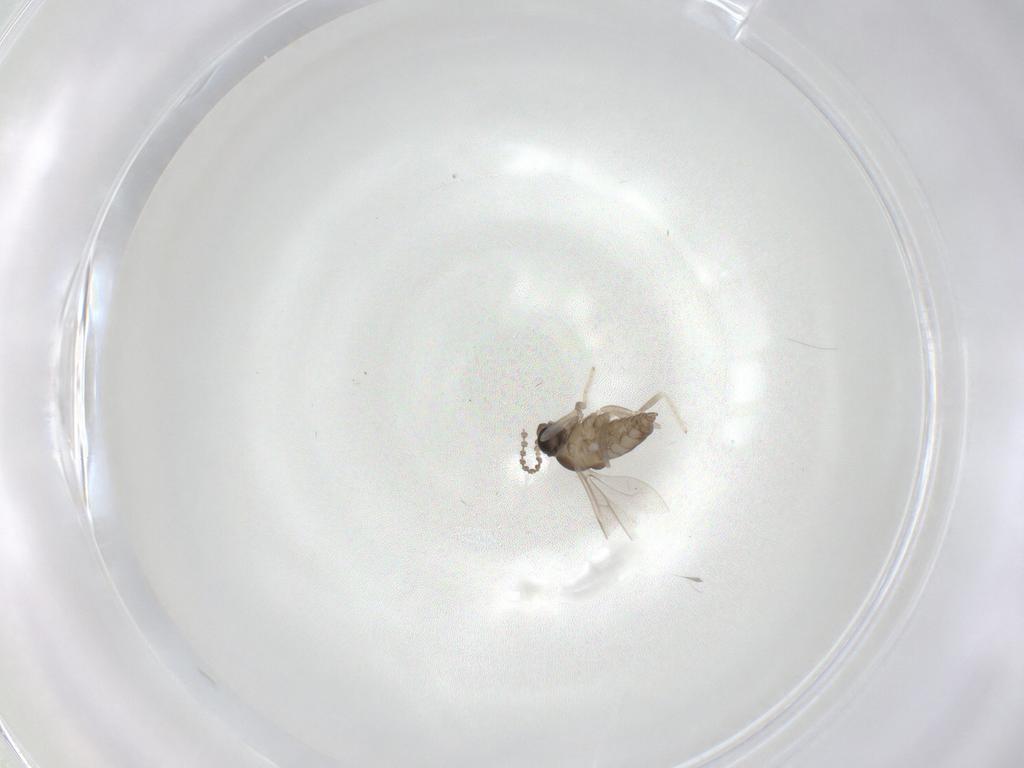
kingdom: Animalia
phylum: Arthropoda
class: Insecta
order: Diptera
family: Cecidomyiidae
